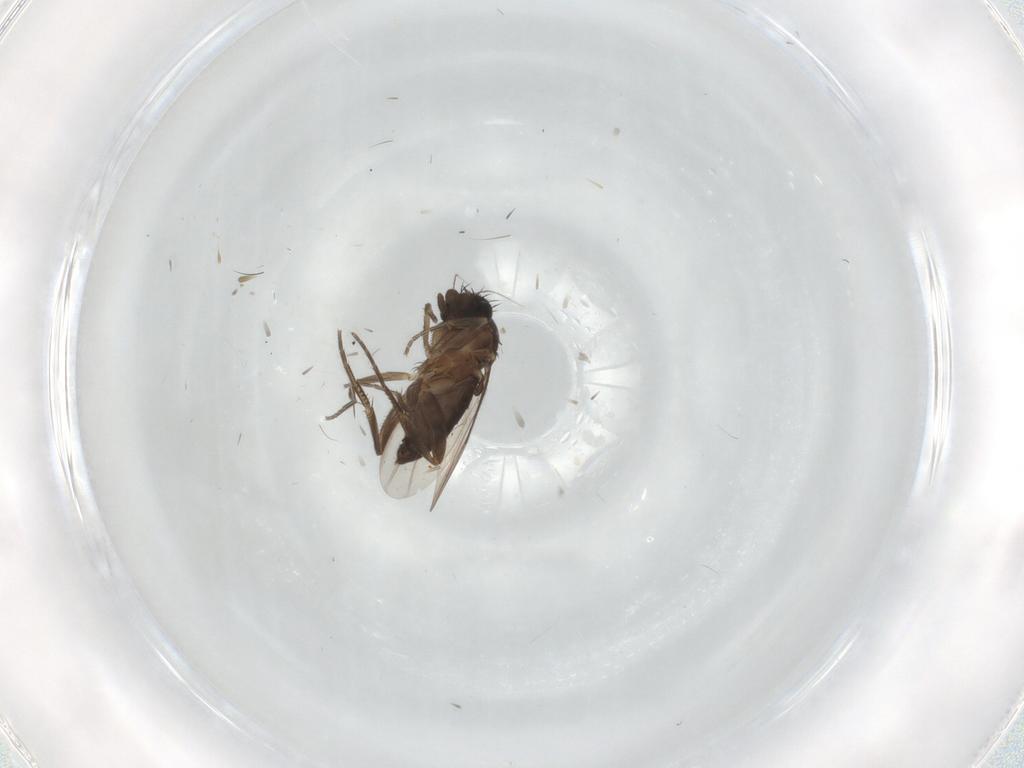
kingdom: Animalia
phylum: Arthropoda
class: Insecta
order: Diptera
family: Phoridae
